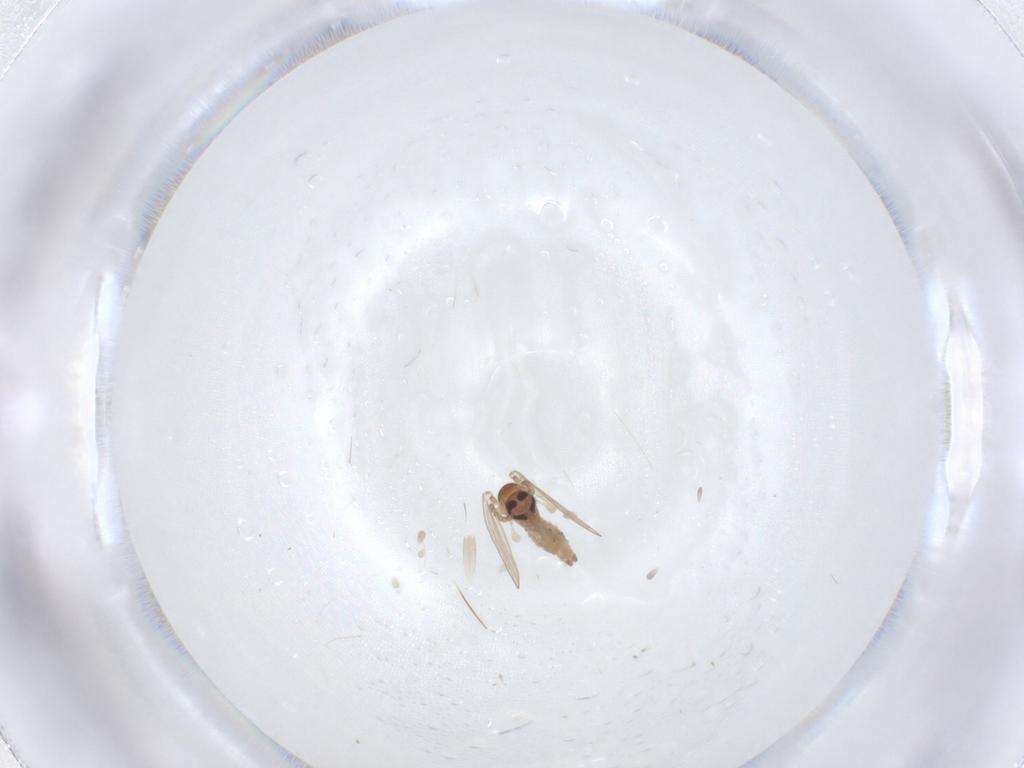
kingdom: Animalia
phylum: Arthropoda
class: Insecta
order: Diptera
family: Psychodidae
